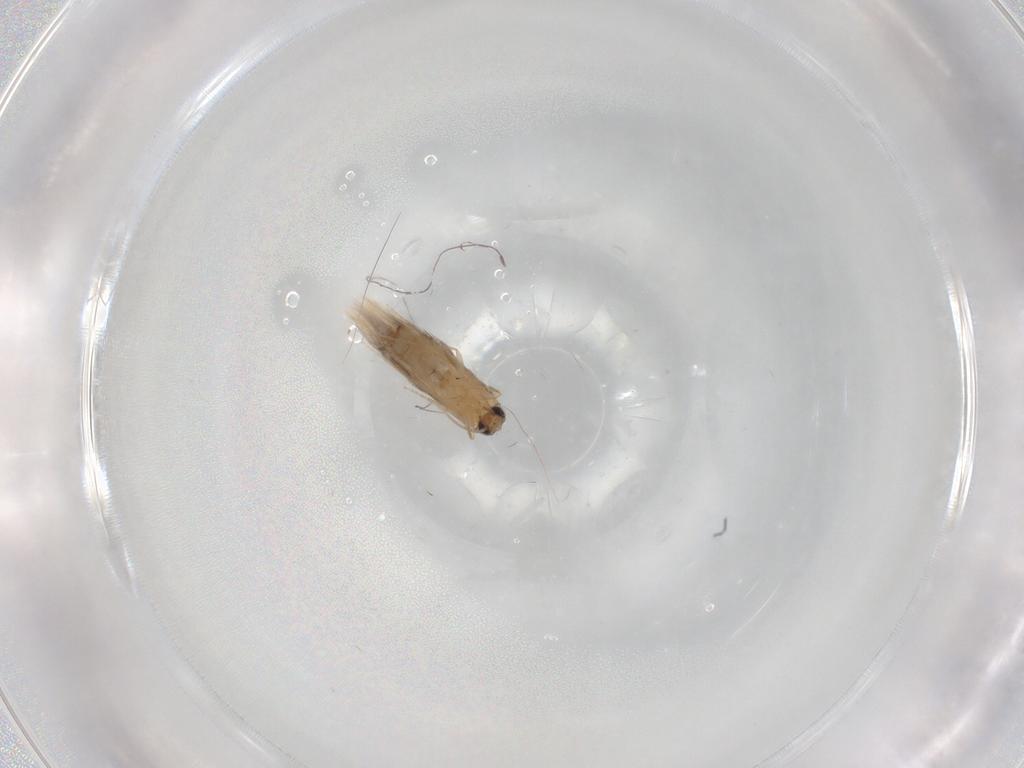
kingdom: Animalia
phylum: Arthropoda
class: Insecta
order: Trichoptera
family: Hydroptilidae
